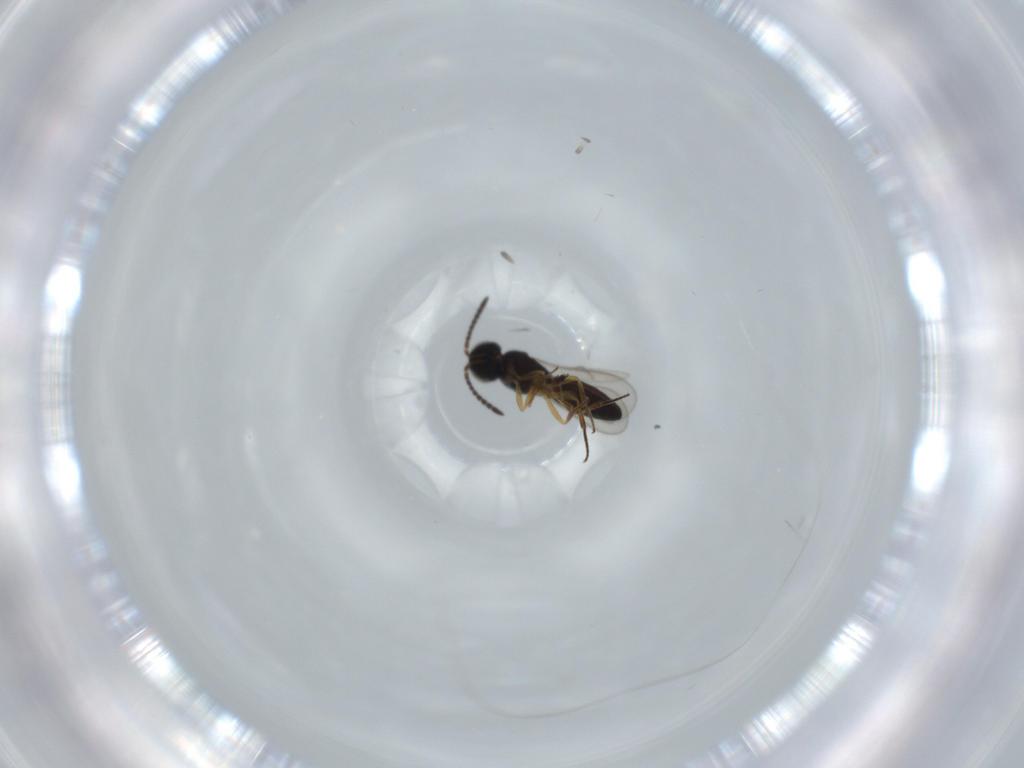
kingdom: Animalia
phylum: Arthropoda
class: Insecta
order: Hymenoptera
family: Scelionidae
